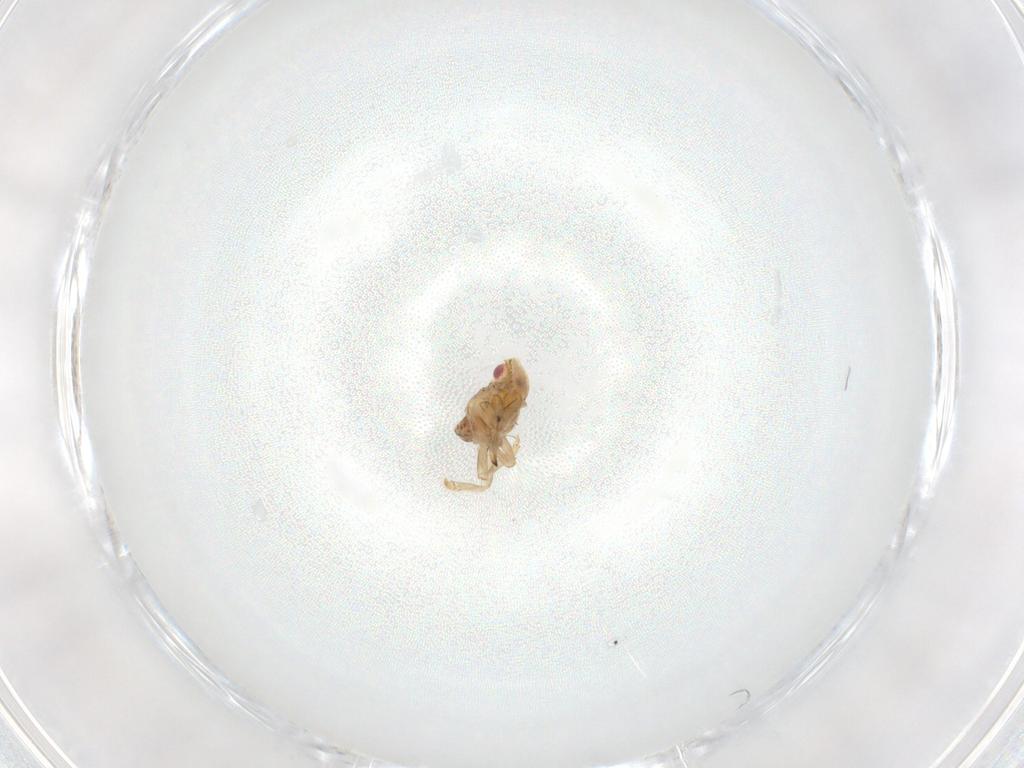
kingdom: Animalia
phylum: Arthropoda
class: Insecta
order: Hemiptera
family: Tropiduchidae
